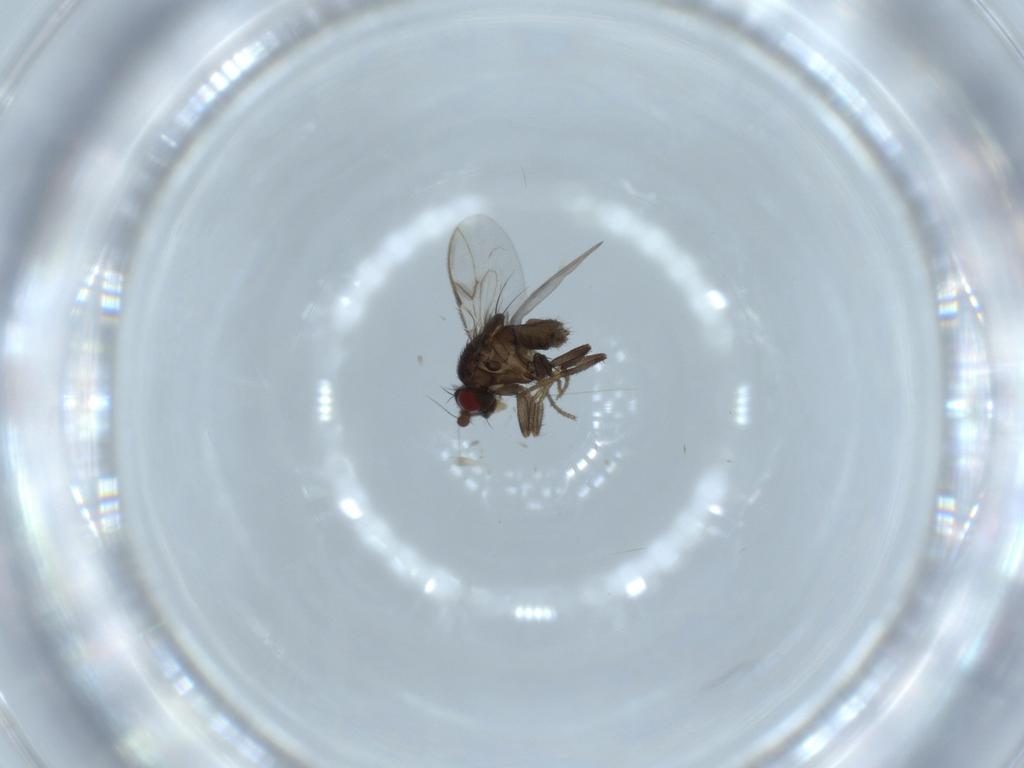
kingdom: Animalia
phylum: Arthropoda
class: Insecta
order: Diptera
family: Sphaeroceridae
